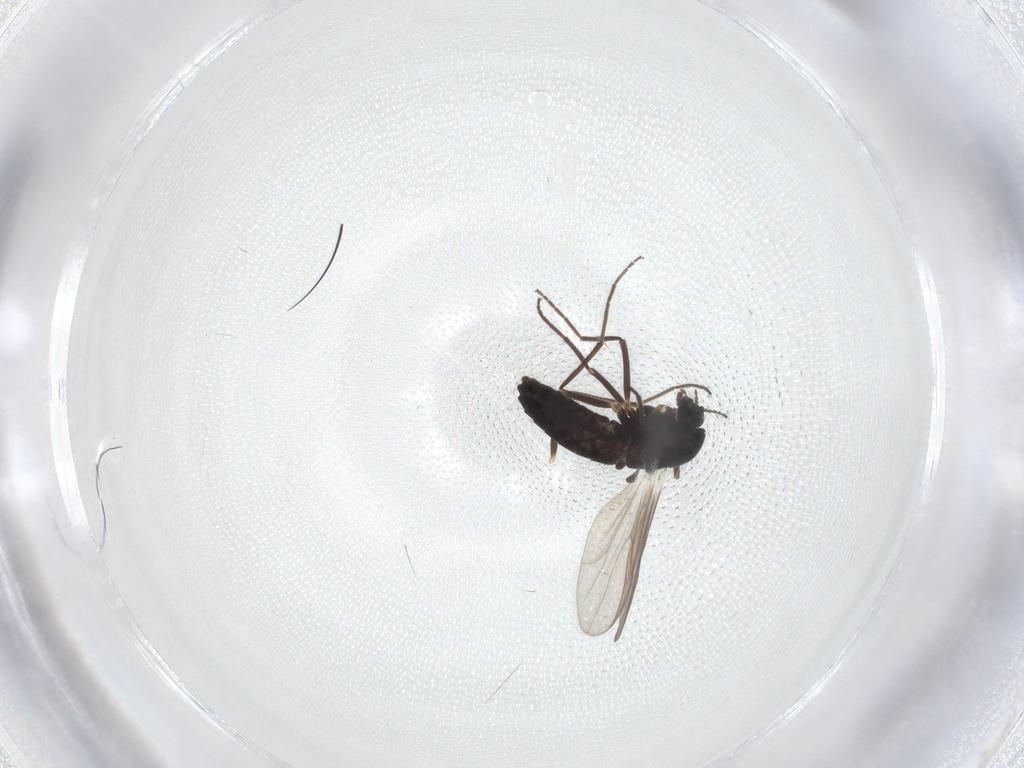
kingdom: Animalia
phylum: Arthropoda
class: Insecta
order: Diptera
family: Chironomidae
